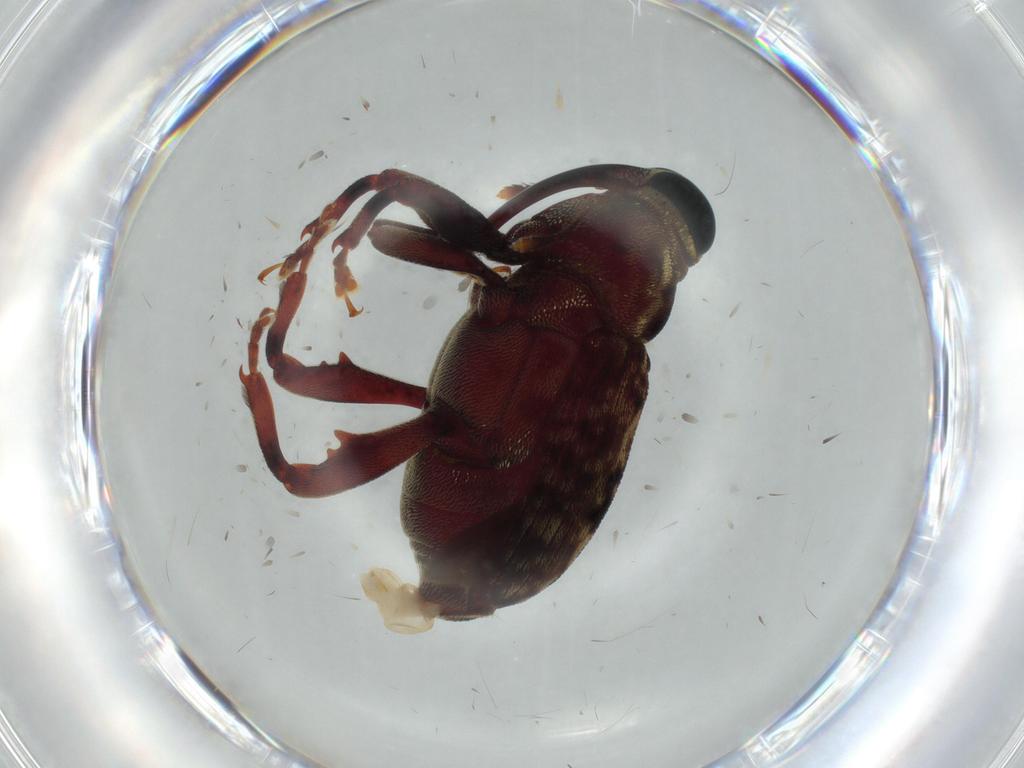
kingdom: Animalia
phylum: Arthropoda
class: Insecta
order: Coleoptera
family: Curculionidae
